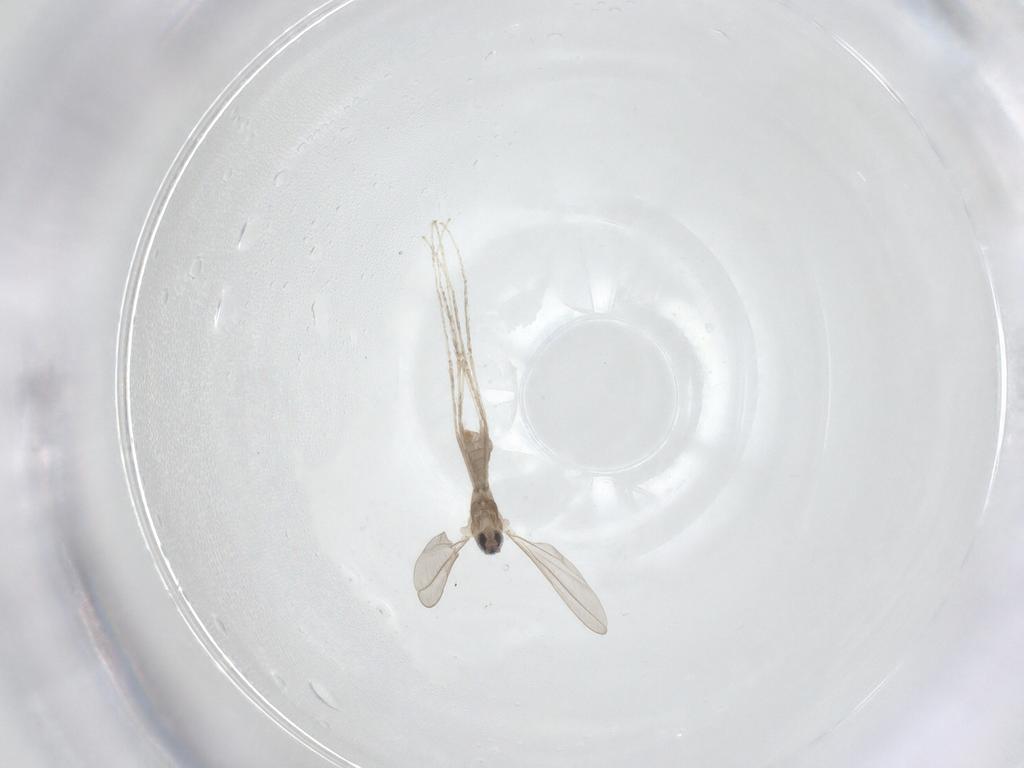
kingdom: Animalia
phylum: Arthropoda
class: Insecta
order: Diptera
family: Cecidomyiidae
